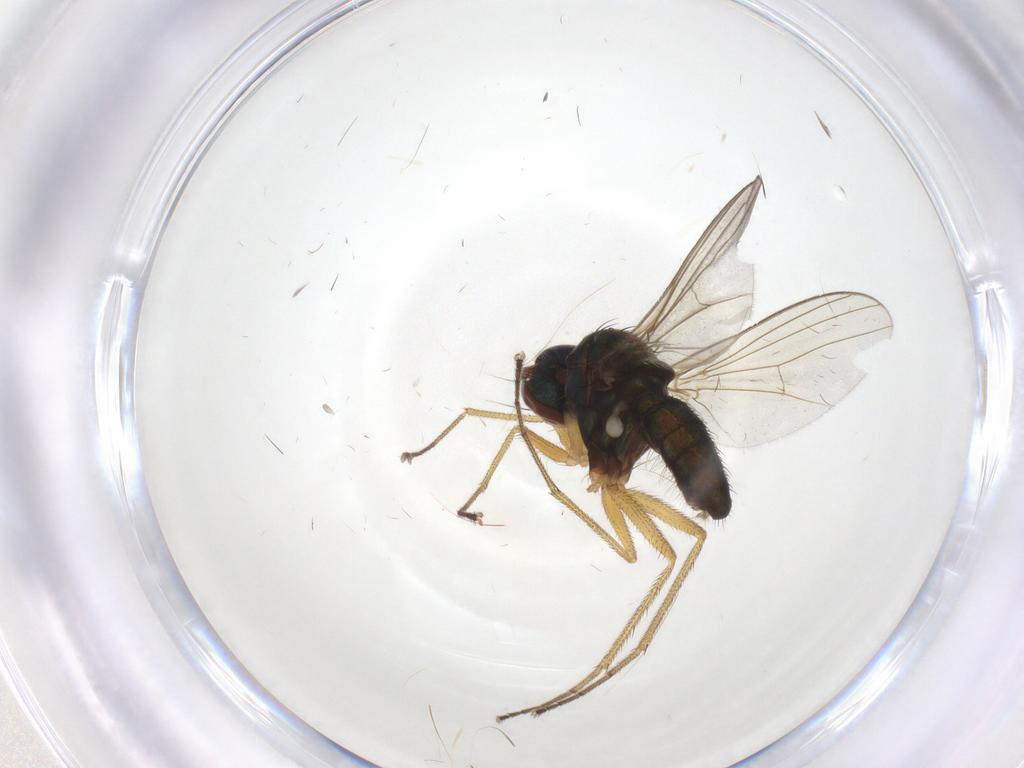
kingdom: Animalia
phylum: Arthropoda
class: Insecta
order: Diptera
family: Dolichopodidae
